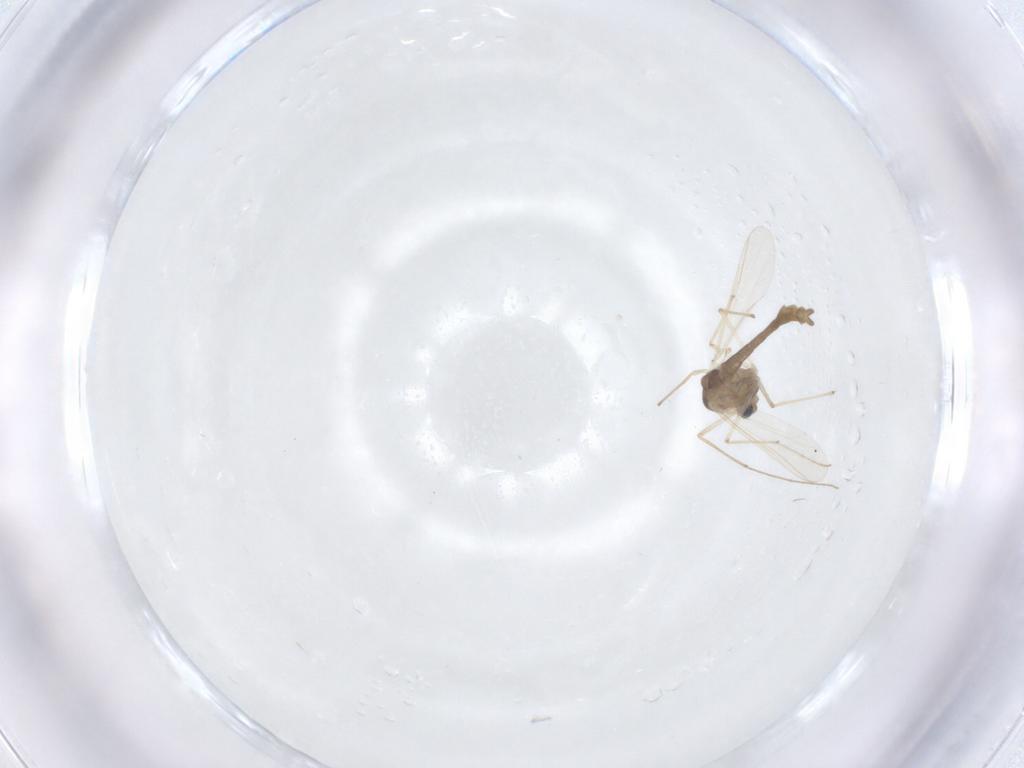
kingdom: Animalia
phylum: Arthropoda
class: Insecta
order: Diptera
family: Chironomidae
